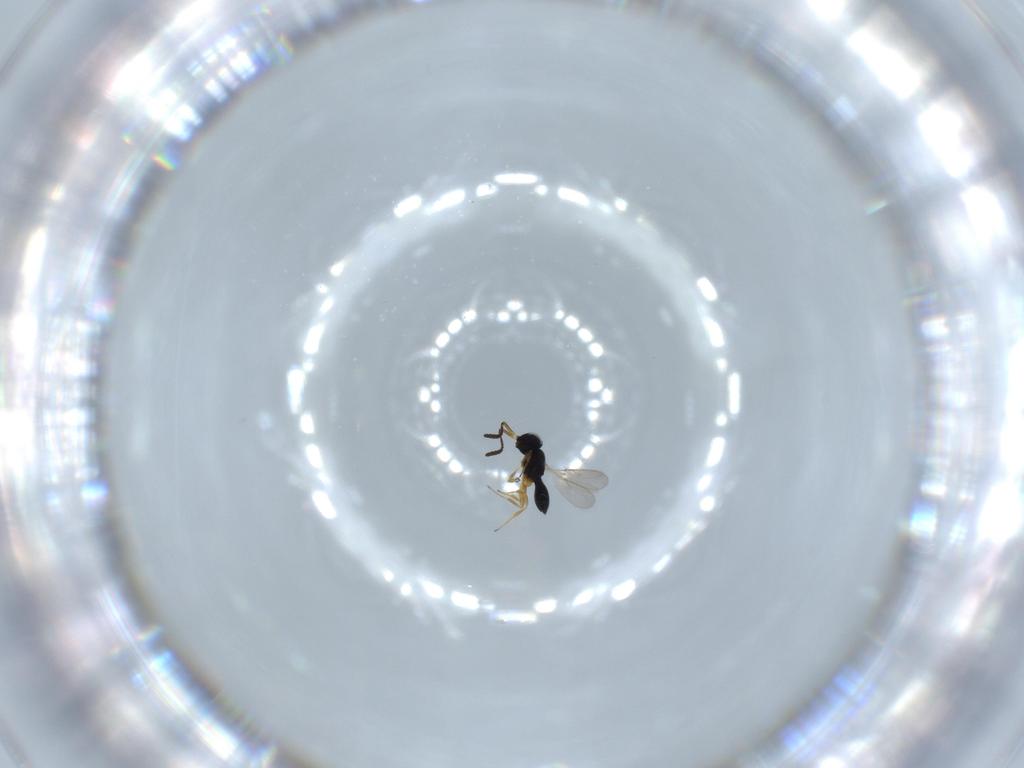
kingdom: Animalia
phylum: Arthropoda
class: Insecta
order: Hymenoptera
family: Scelionidae
